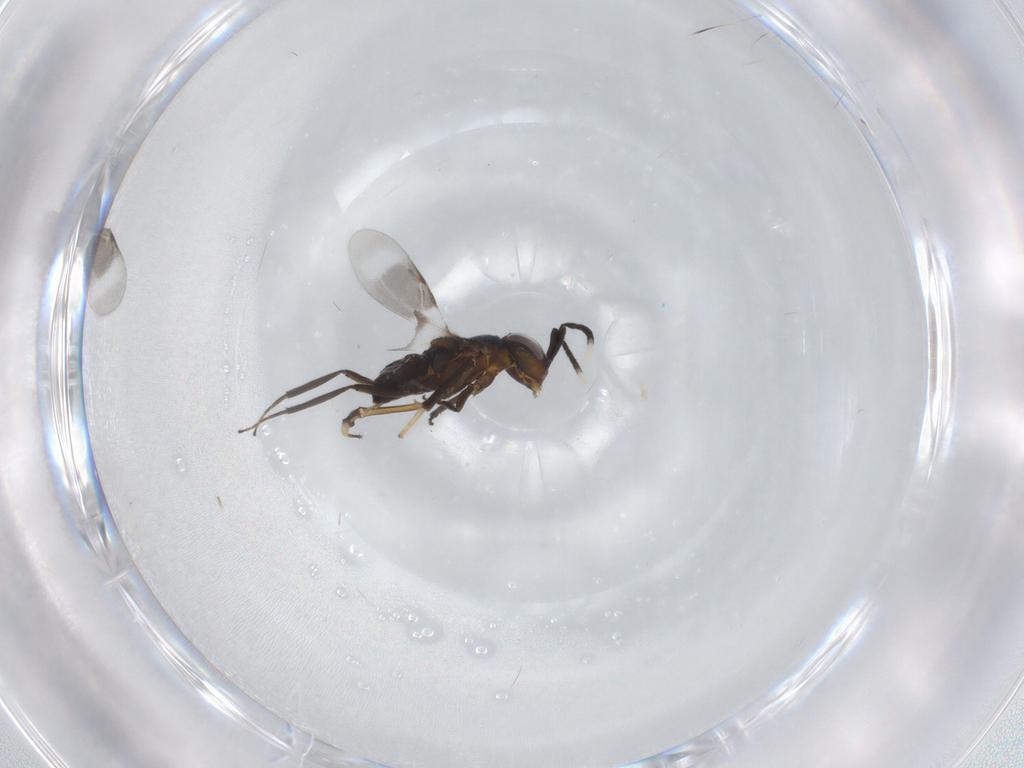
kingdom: Animalia
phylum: Arthropoda
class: Insecta
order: Hymenoptera
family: Encyrtidae
